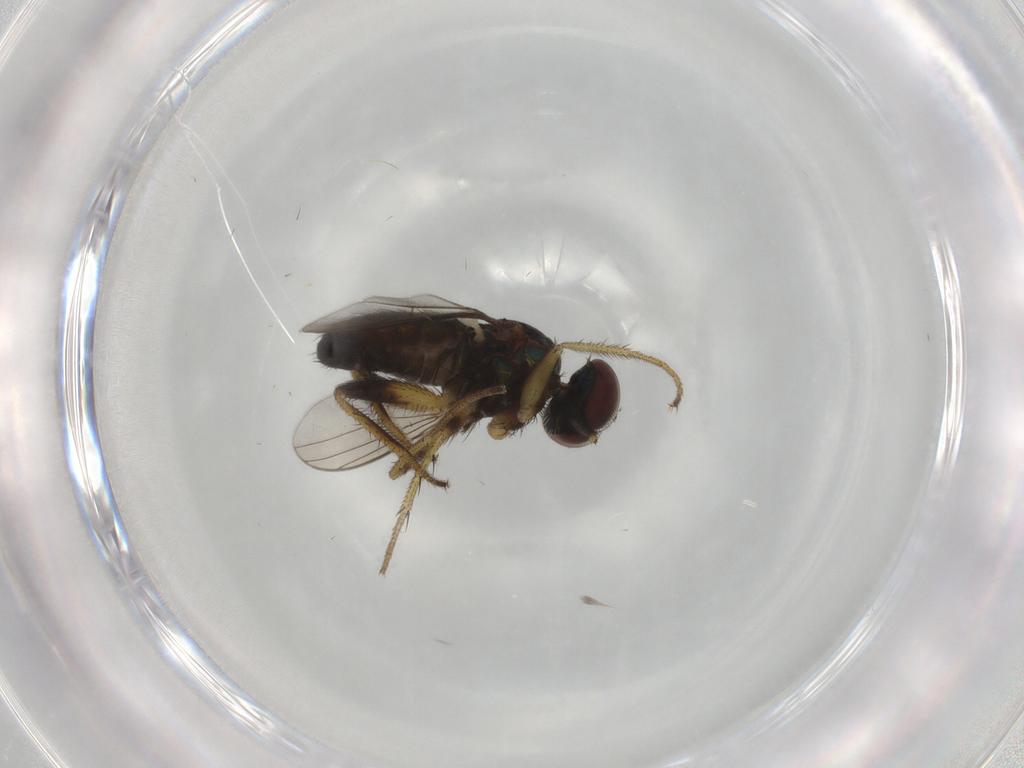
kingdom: Animalia
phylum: Arthropoda
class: Insecta
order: Diptera
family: Dolichopodidae
